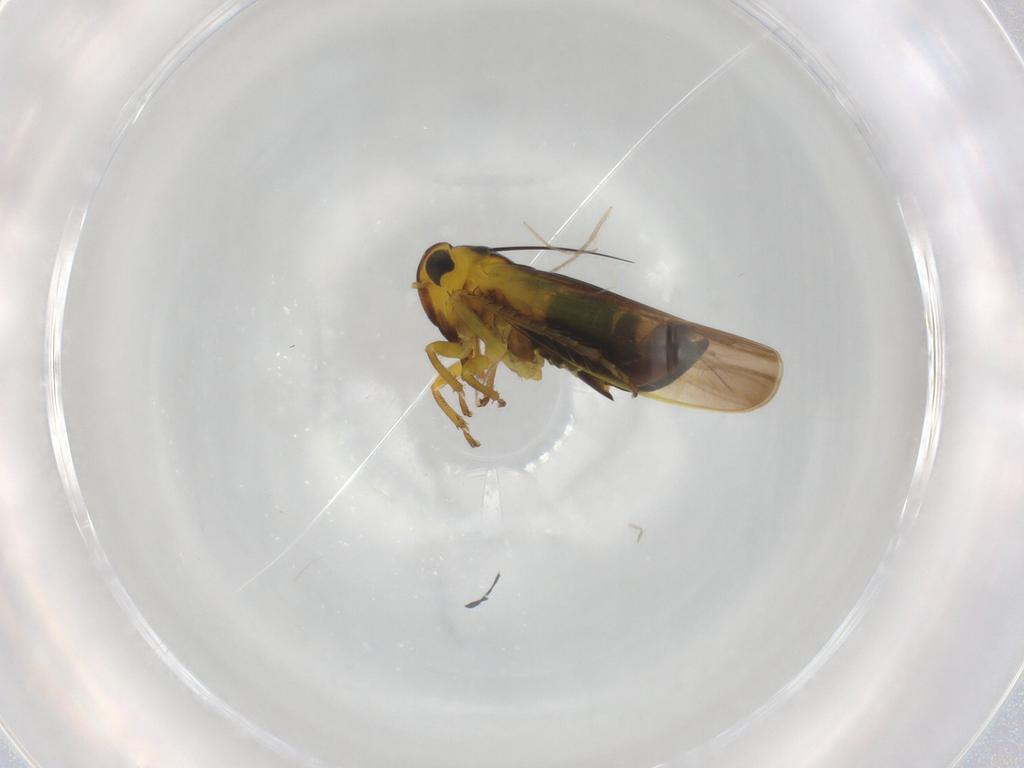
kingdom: Animalia
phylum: Arthropoda
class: Insecta
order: Hemiptera
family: Cicadellidae
